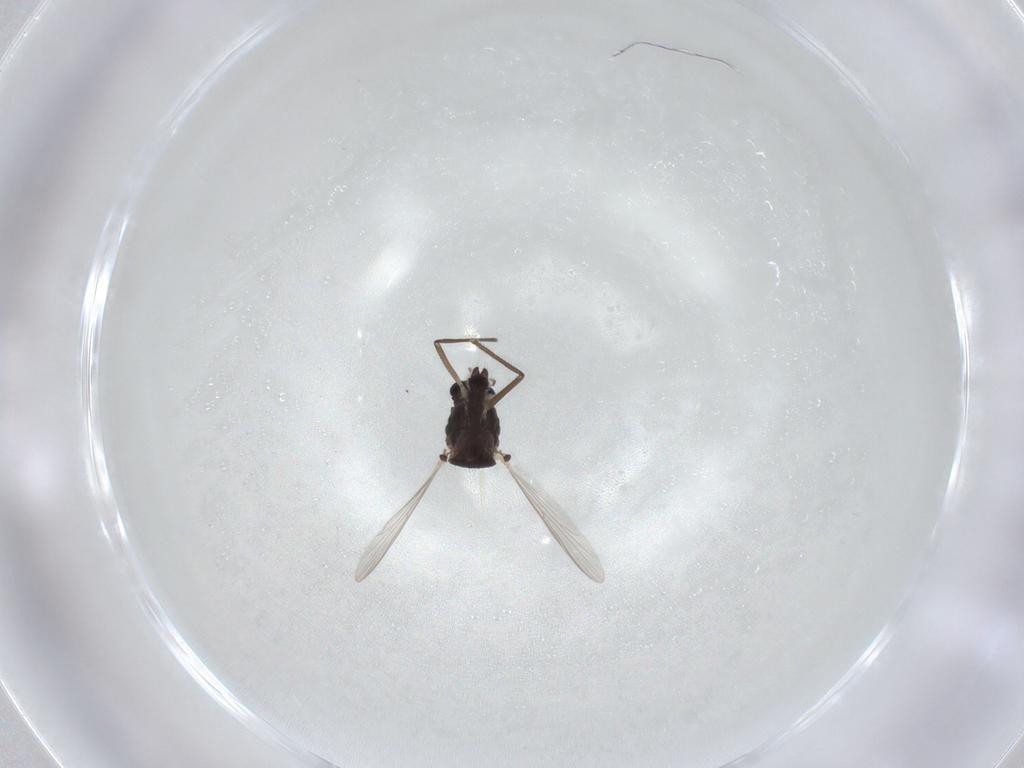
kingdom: Animalia
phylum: Arthropoda
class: Insecta
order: Diptera
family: Chironomidae
